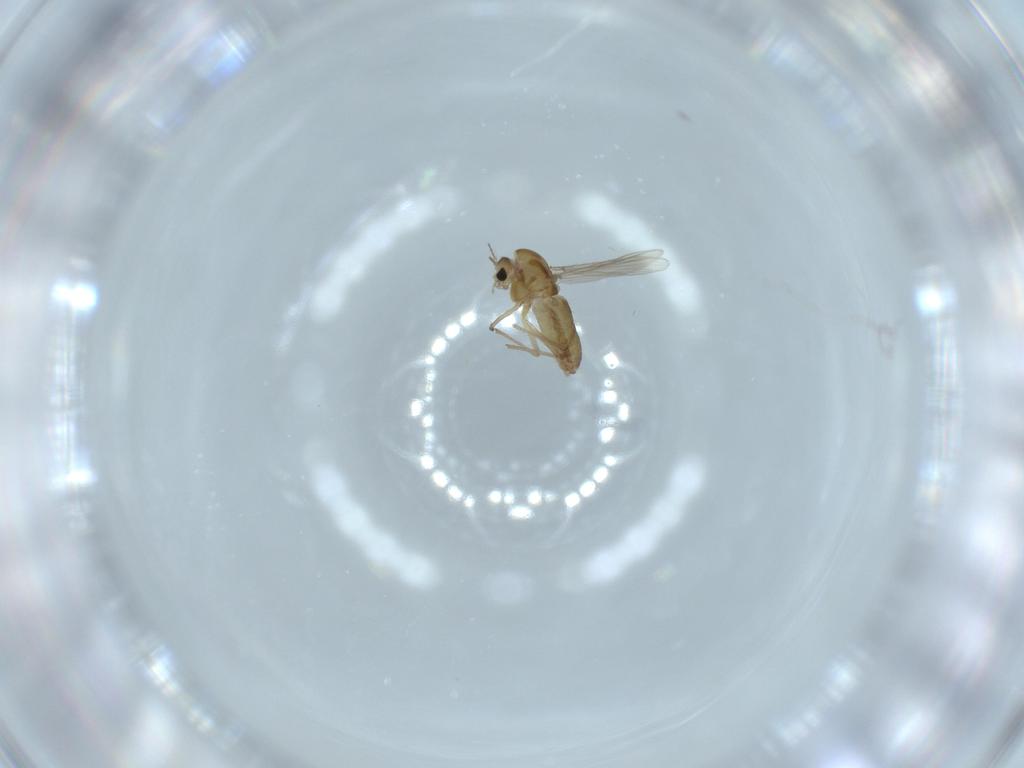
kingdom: Animalia
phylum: Arthropoda
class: Insecta
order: Diptera
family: Chironomidae
